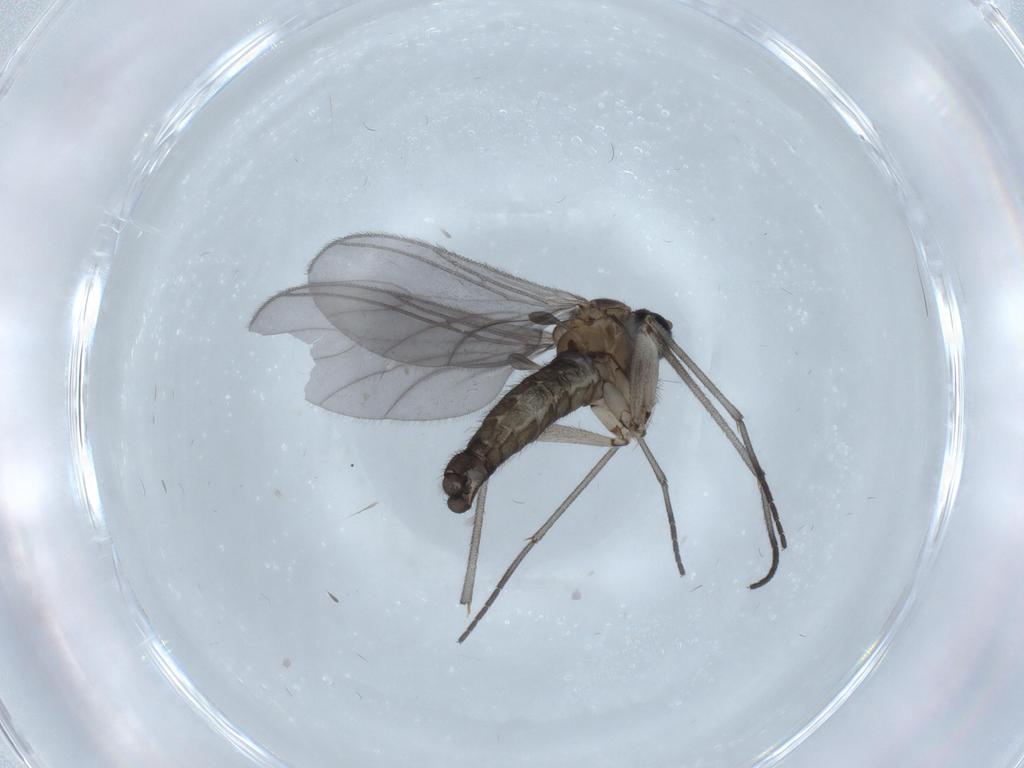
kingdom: Animalia
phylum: Arthropoda
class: Insecta
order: Diptera
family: Sciaridae
